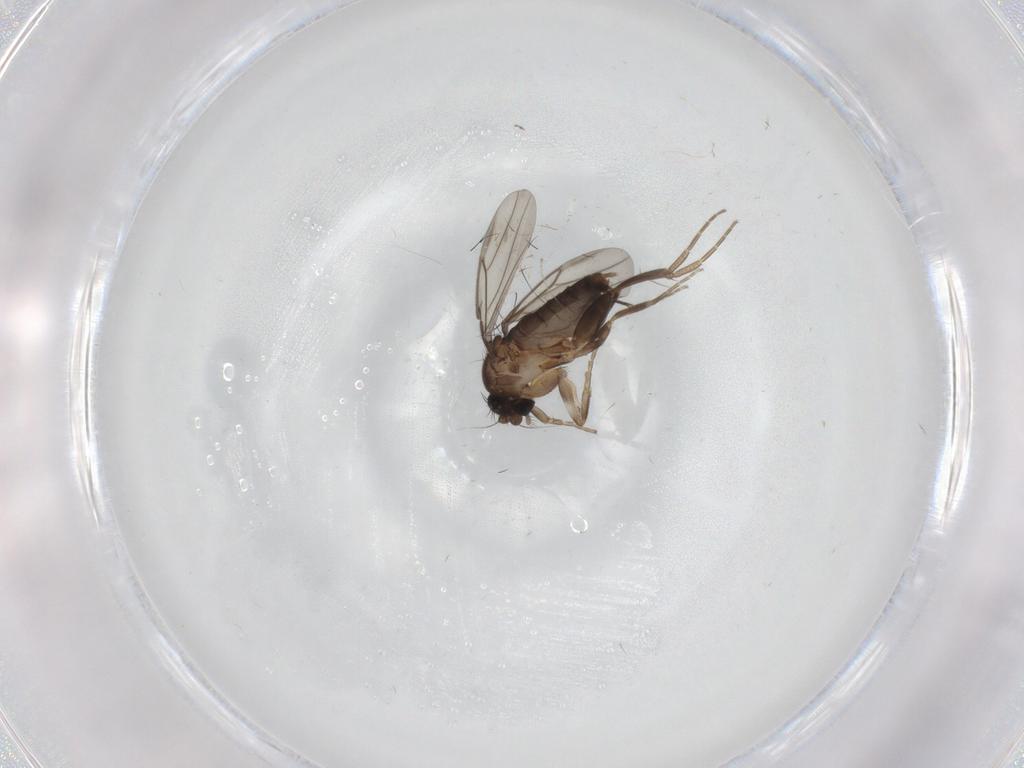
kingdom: Animalia
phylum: Arthropoda
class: Insecta
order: Diptera
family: Phoridae
